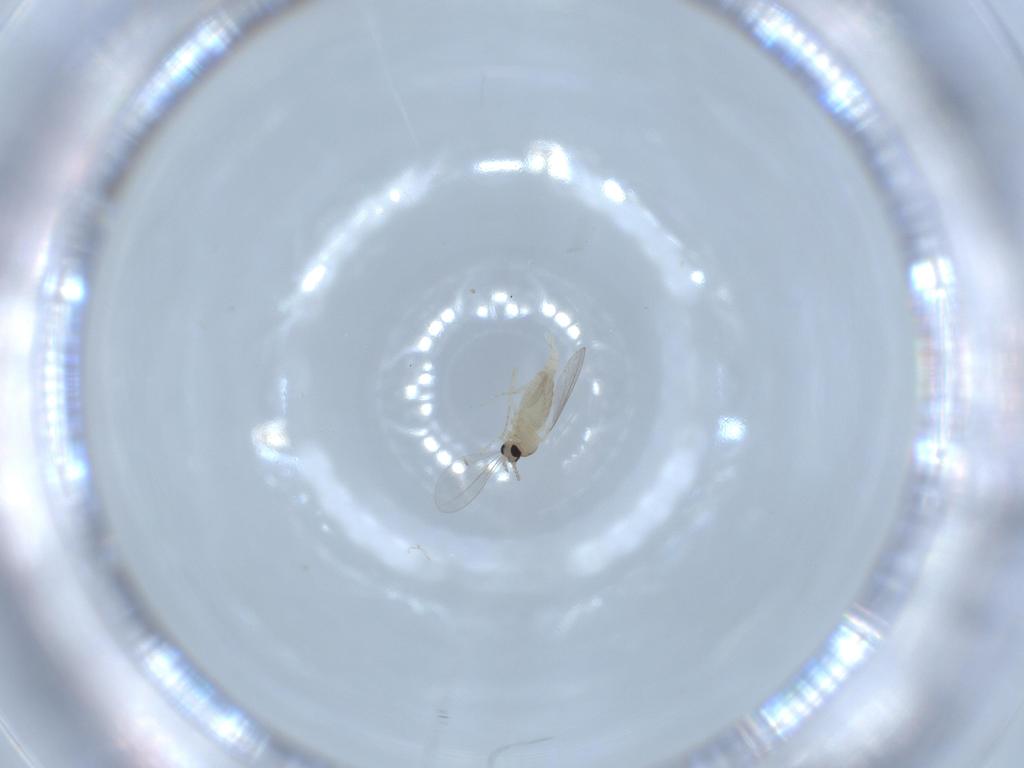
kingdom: Animalia
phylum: Arthropoda
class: Insecta
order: Diptera
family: Cecidomyiidae
